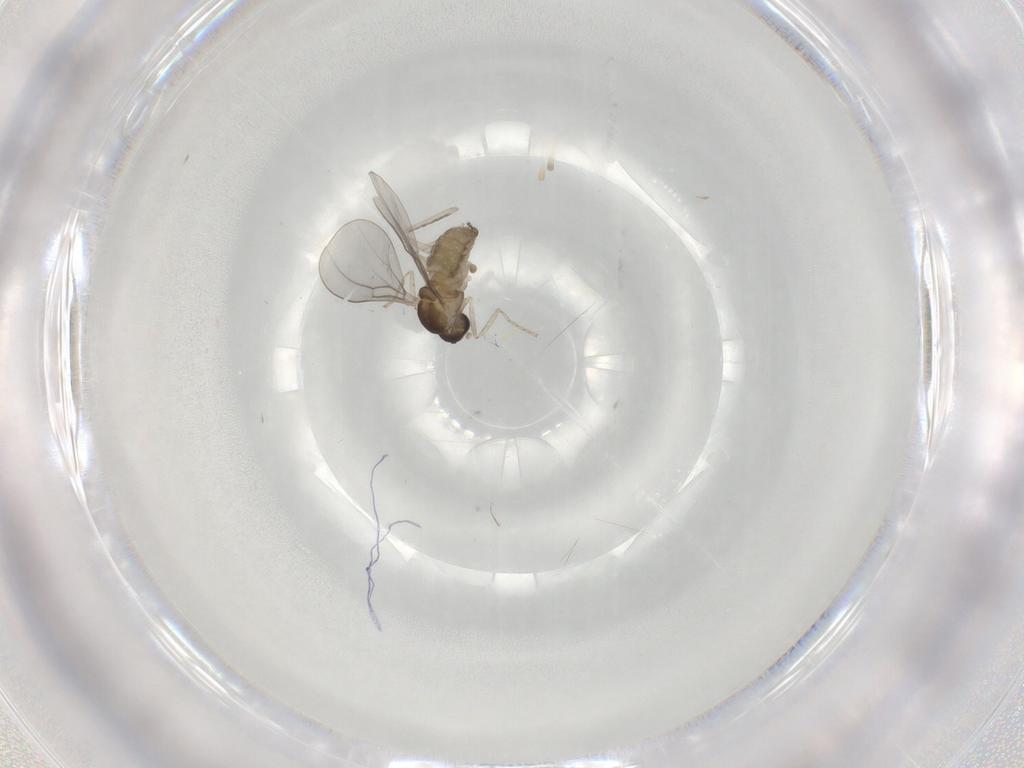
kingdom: Animalia
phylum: Arthropoda
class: Insecta
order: Diptera
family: Cecidomyiidae
